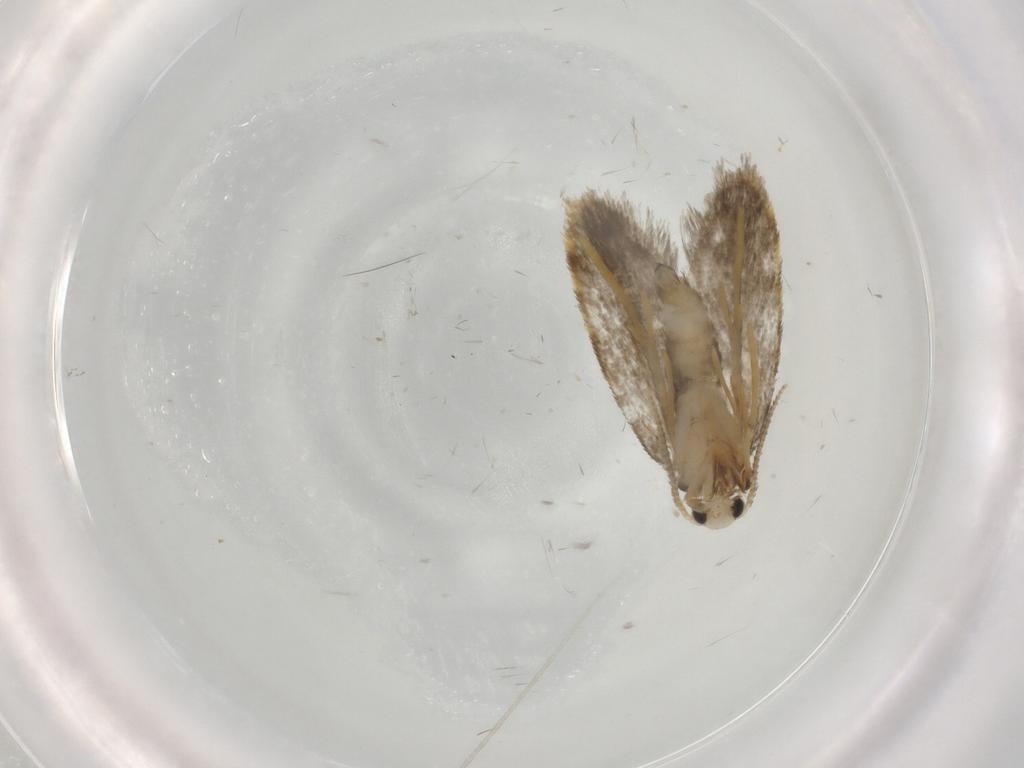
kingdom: Animalia
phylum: Arthropoda
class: Insecta
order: Lepidoptera
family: Psychidae
